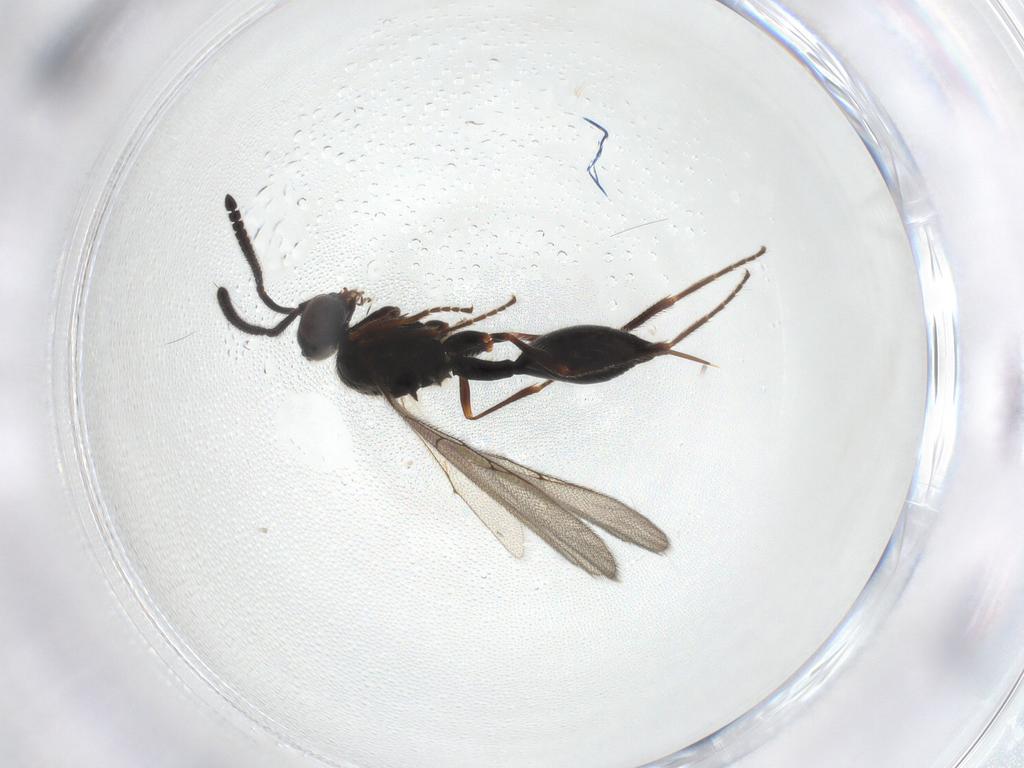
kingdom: Animalia
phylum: Arthropoda
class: Insecta
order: Hymenoptera
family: Diapriidae
